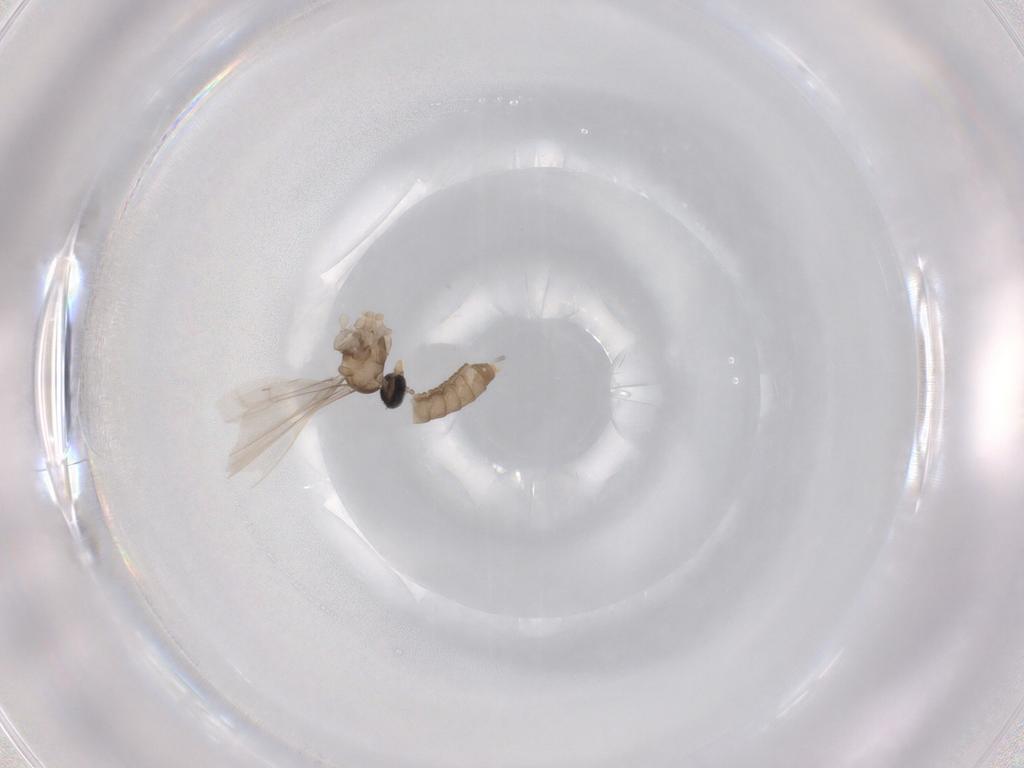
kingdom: Animalia
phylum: Arthropoda
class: Insecta
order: Diptera
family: Cecidomyiidae
